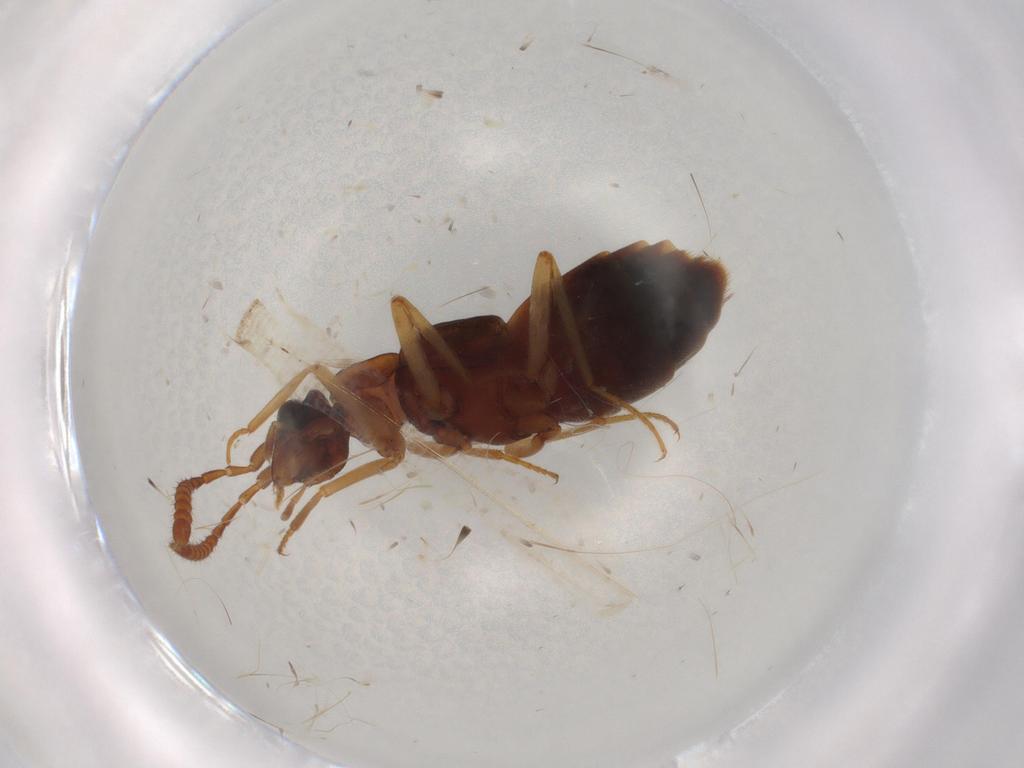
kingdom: Animalia
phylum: Arthropoda
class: Insecta
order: Coleoptera
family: Staphylinidae
